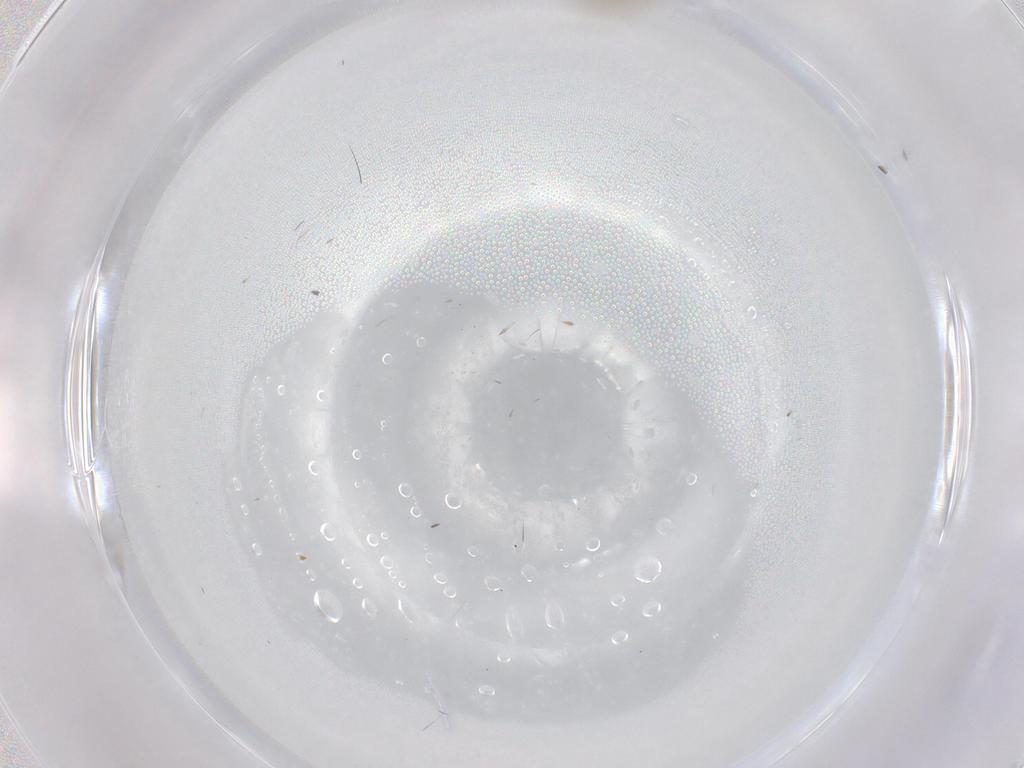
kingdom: Animalia
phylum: Arthropoda
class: Insecta
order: Diptera
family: Chironomidae
